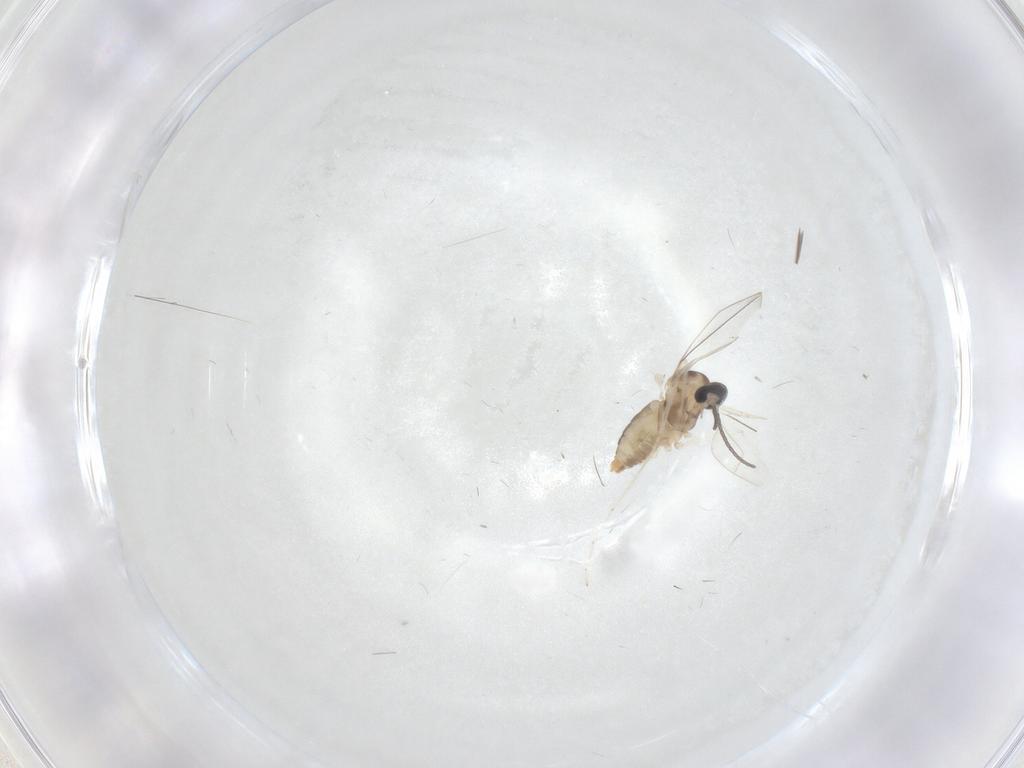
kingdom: Animalia
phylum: Arthropoda
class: Insecta
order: Diptera
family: Cecidomyiidae
